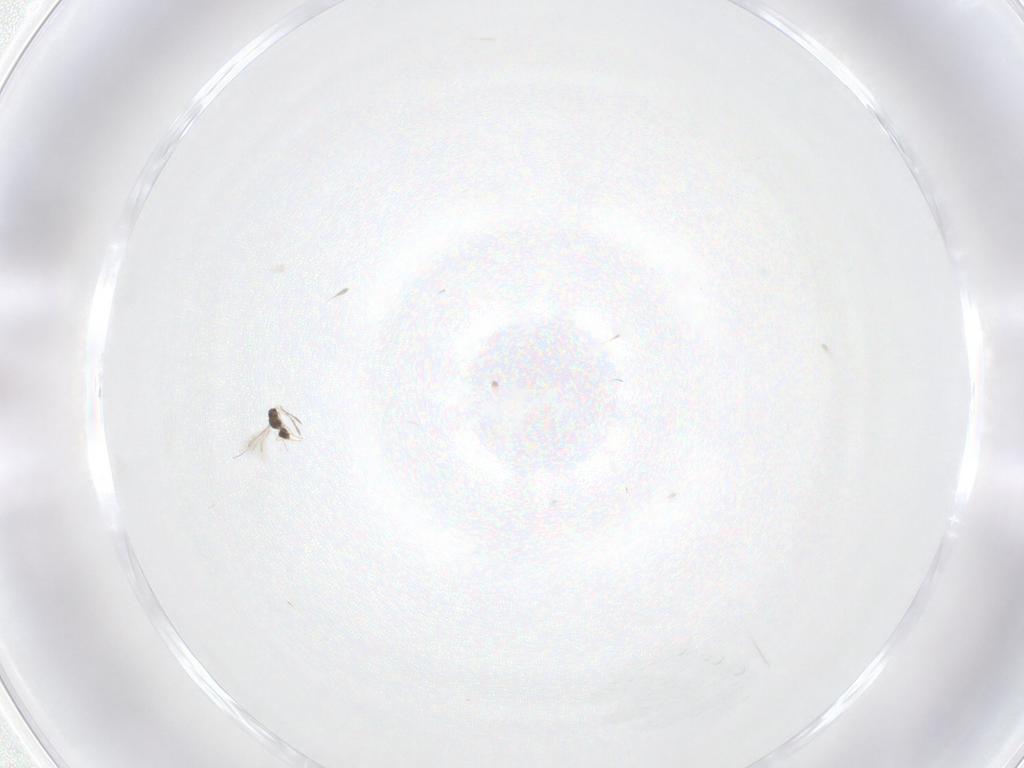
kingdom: Animalia
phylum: Arthropoda
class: Insecta
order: Hymenoptera
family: Mymaridae
